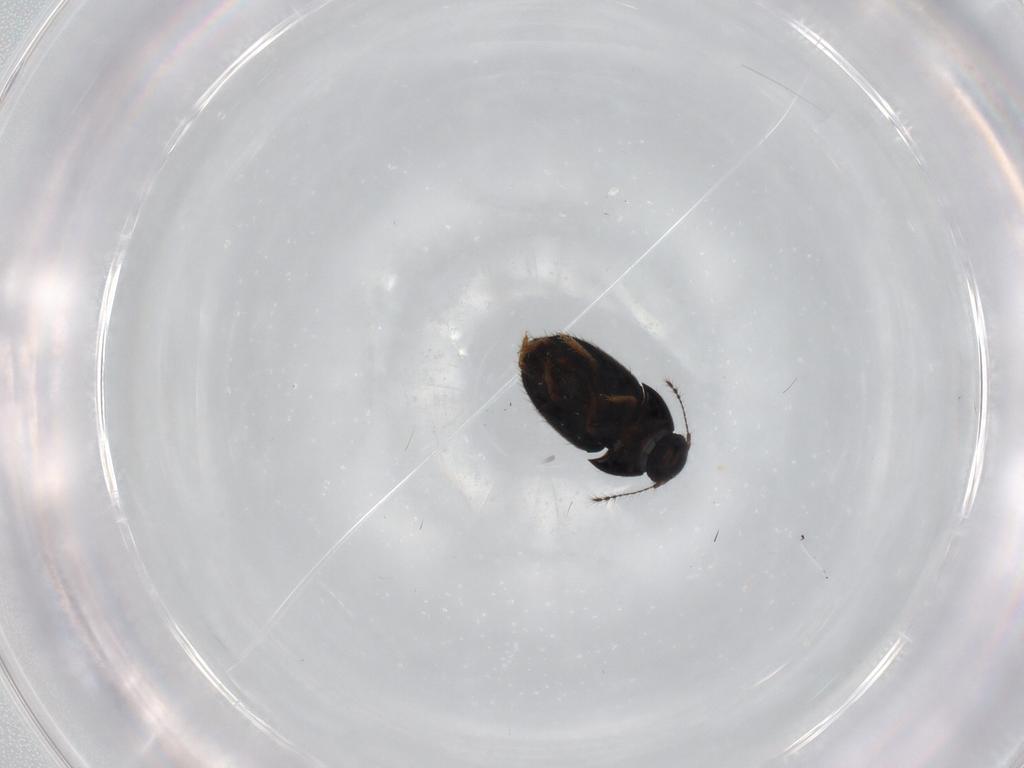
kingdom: Animalia
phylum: Arthropoda
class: Insecta
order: Coleoptera
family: Ptiliidae
